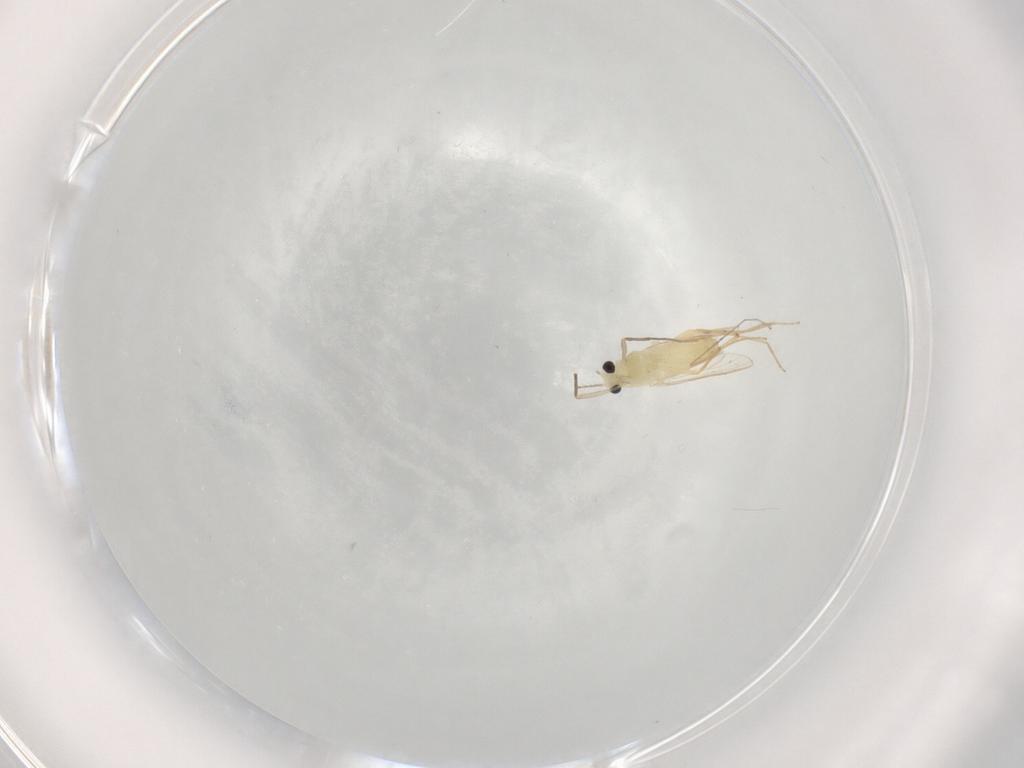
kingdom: Animalia
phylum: Arthropoda
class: Insecta
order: Diptera
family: Chironomidae
